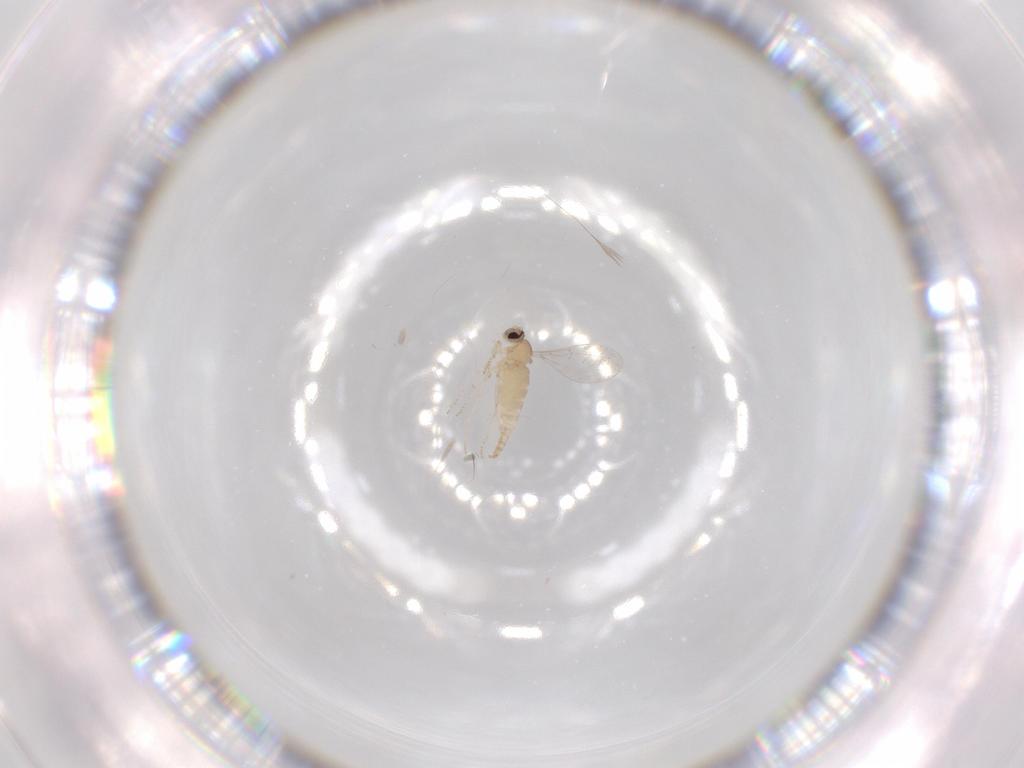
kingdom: Animalia
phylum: Arthropoda
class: Insecta
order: Diptera
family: Cecidomyiidae
